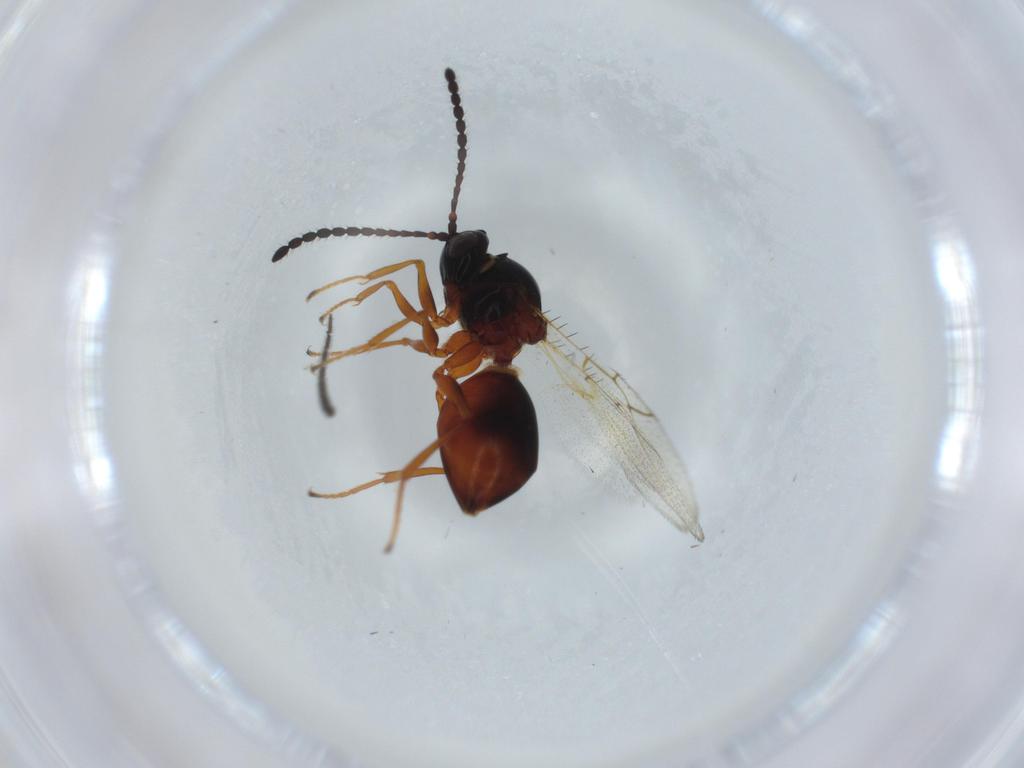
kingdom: Animalia
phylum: Arthropoda
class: Insecta
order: Hymenoptera
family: Figitidae
